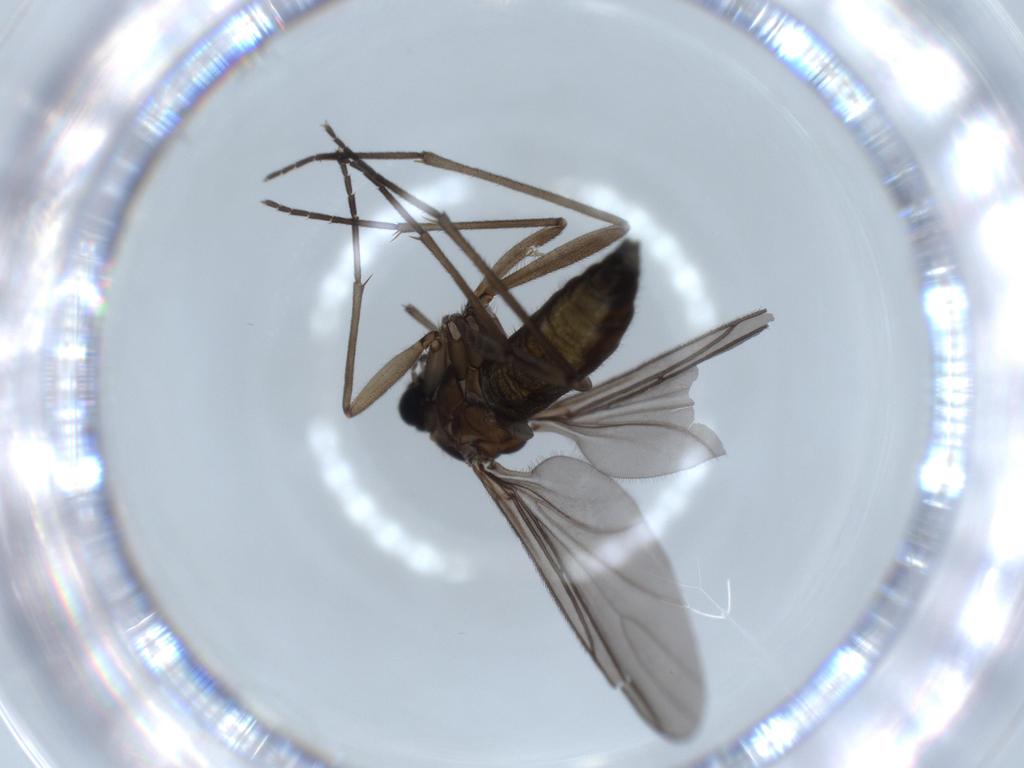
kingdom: Animalia
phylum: Arthropoda
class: Insecta
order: Diptera
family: Sciaridae
